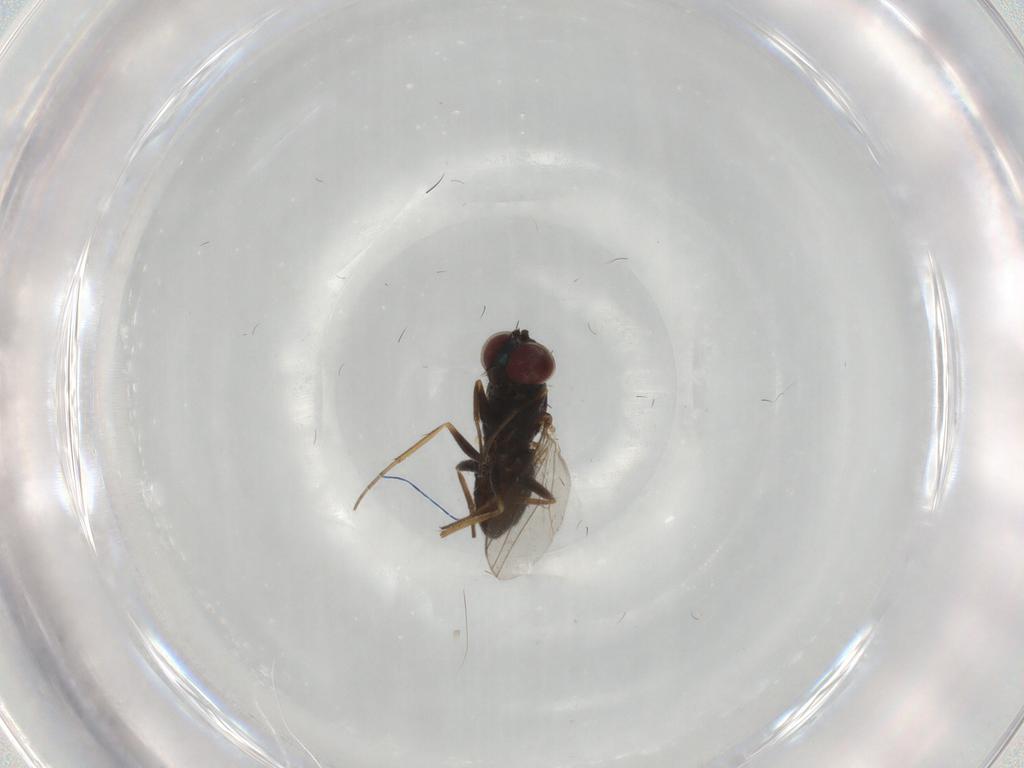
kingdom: Animalia
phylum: Arthropoda
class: Insecta
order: Diptera
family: Dolichopodidae
